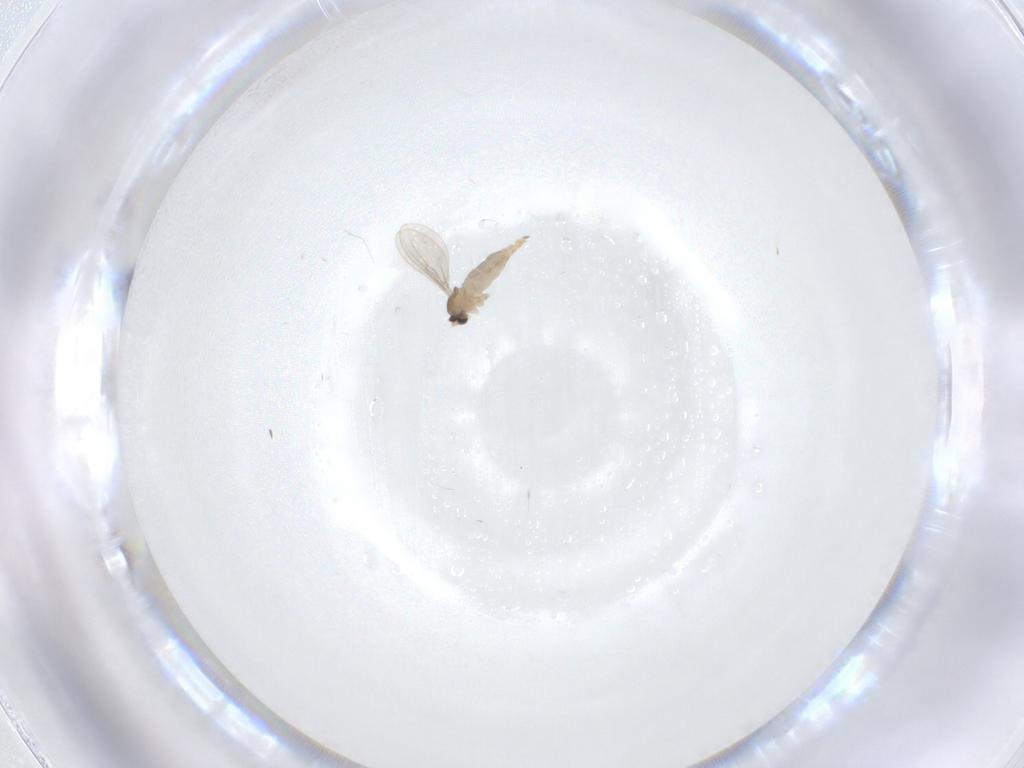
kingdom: Animalia
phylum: Arthropoda
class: Insecta
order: Diptera
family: Cecidomyiidae
